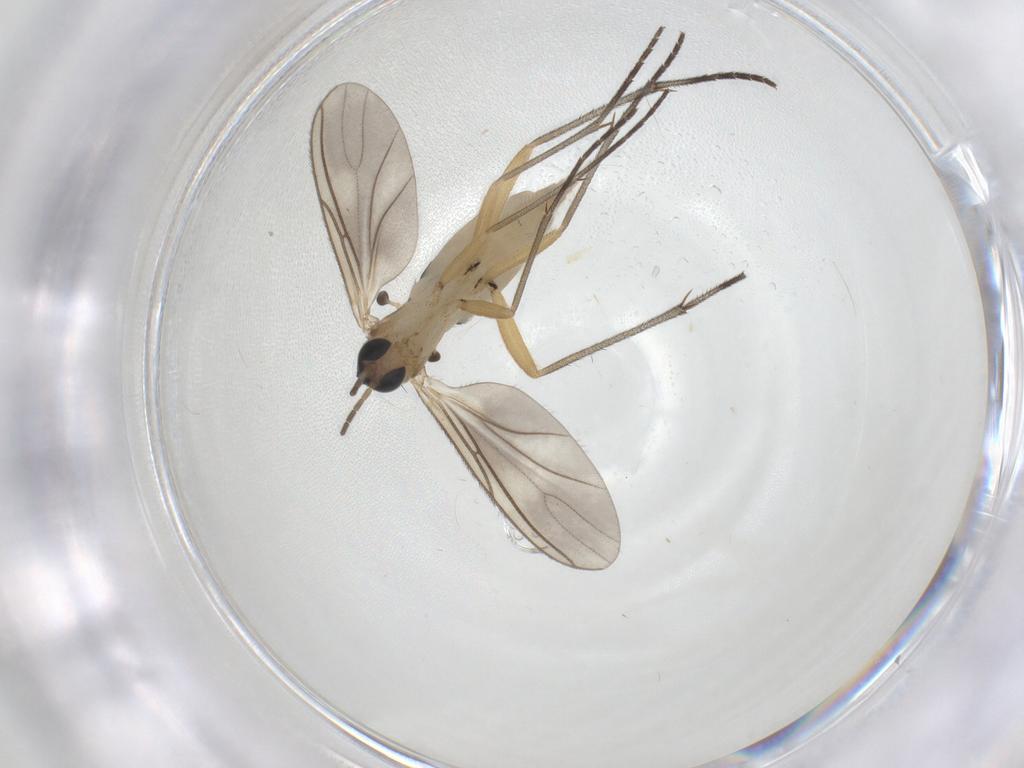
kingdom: Animalia
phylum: Arthropoda
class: Insecta
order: Diptera
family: Sciaridae
